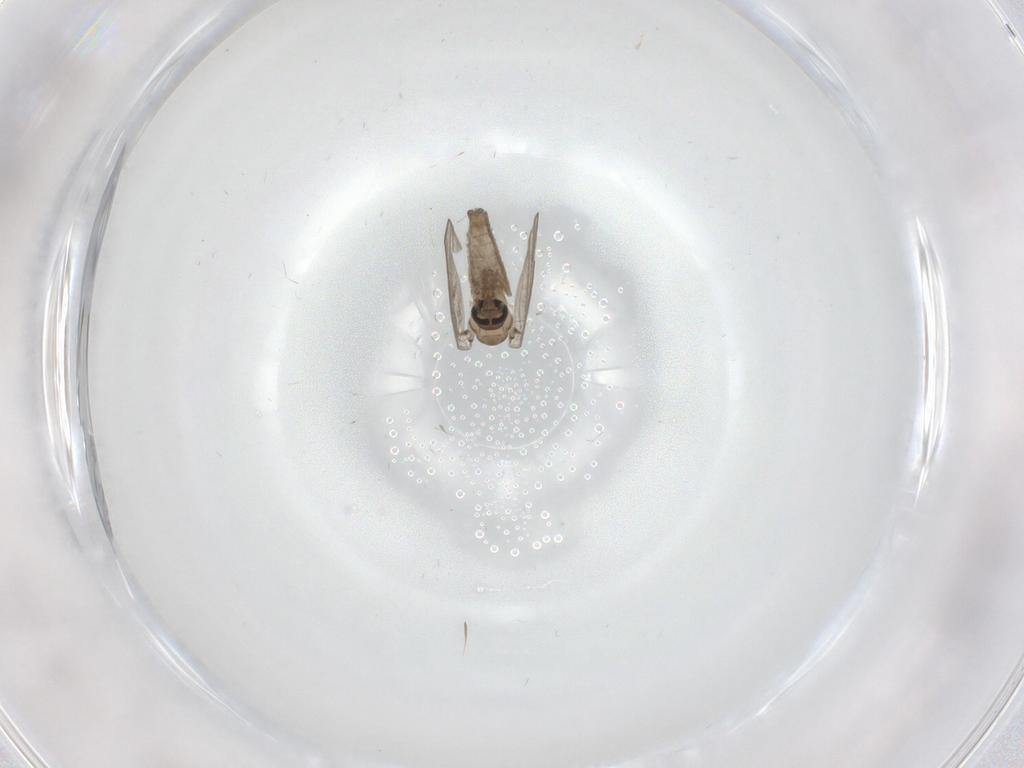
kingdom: Animalia
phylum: Arthropoda
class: Insecta
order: Diptera
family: Psychodidae
